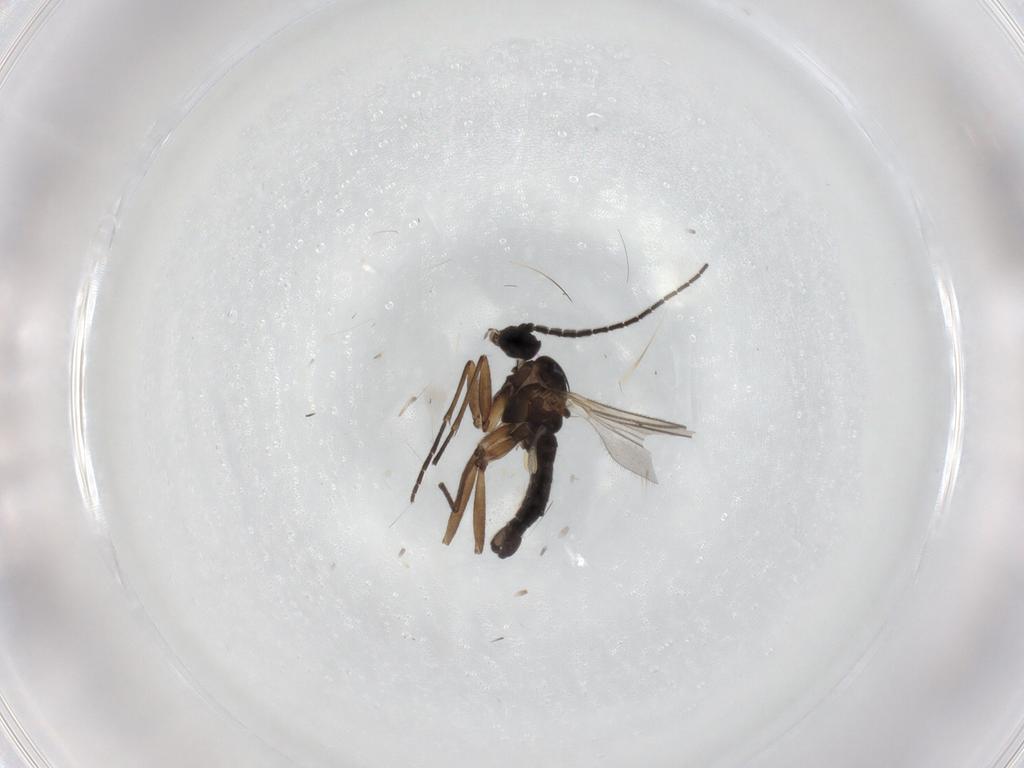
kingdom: Animalia
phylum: Arthropoda
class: Insecta
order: Diptera
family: Sciaridae
